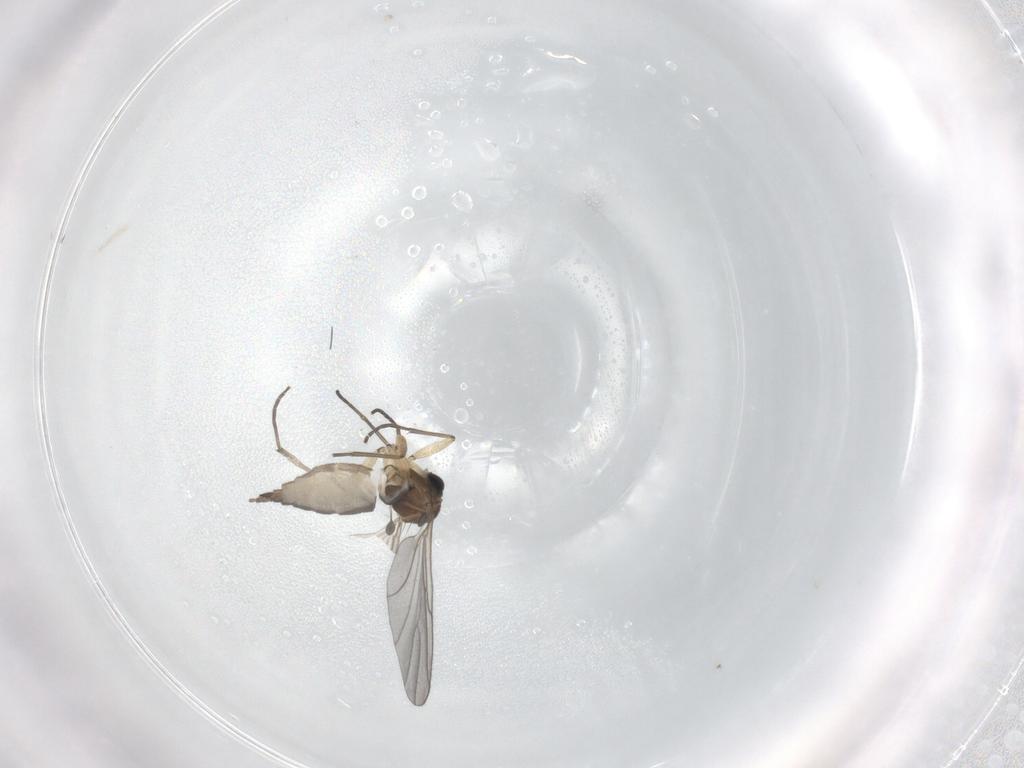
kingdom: Animalia
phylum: Arthropoda
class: Insecta
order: Diptera
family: Sciaridae
